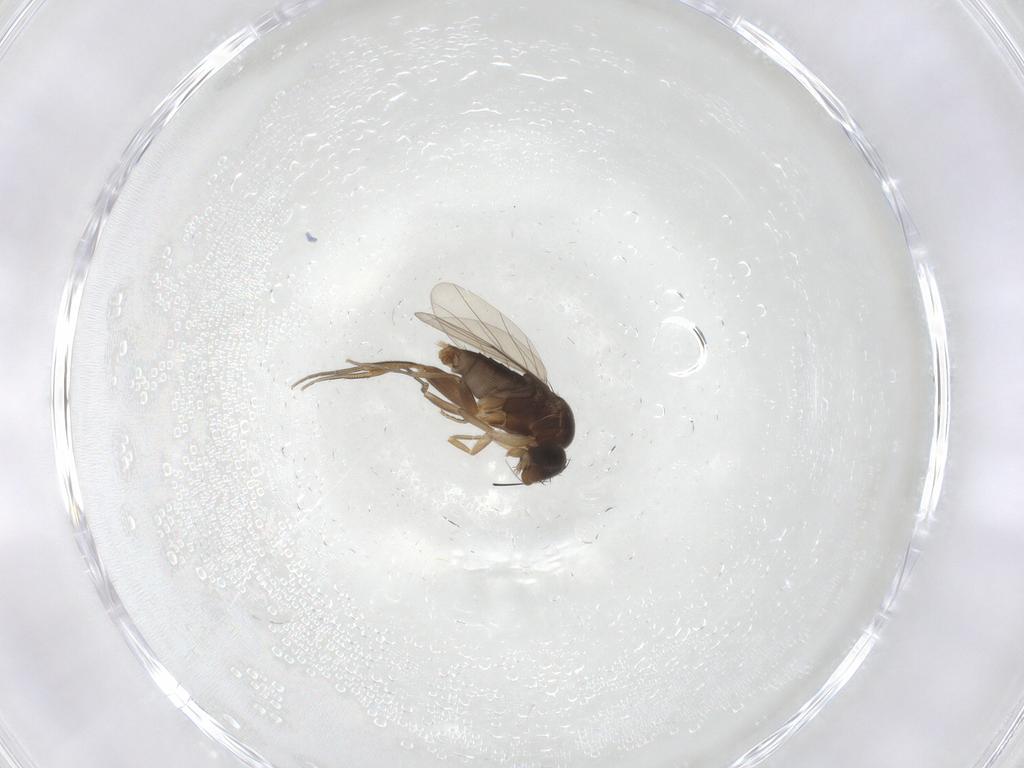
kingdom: Animalia
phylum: Arthropoda
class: Insecta
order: Diptera
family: Phoridae
